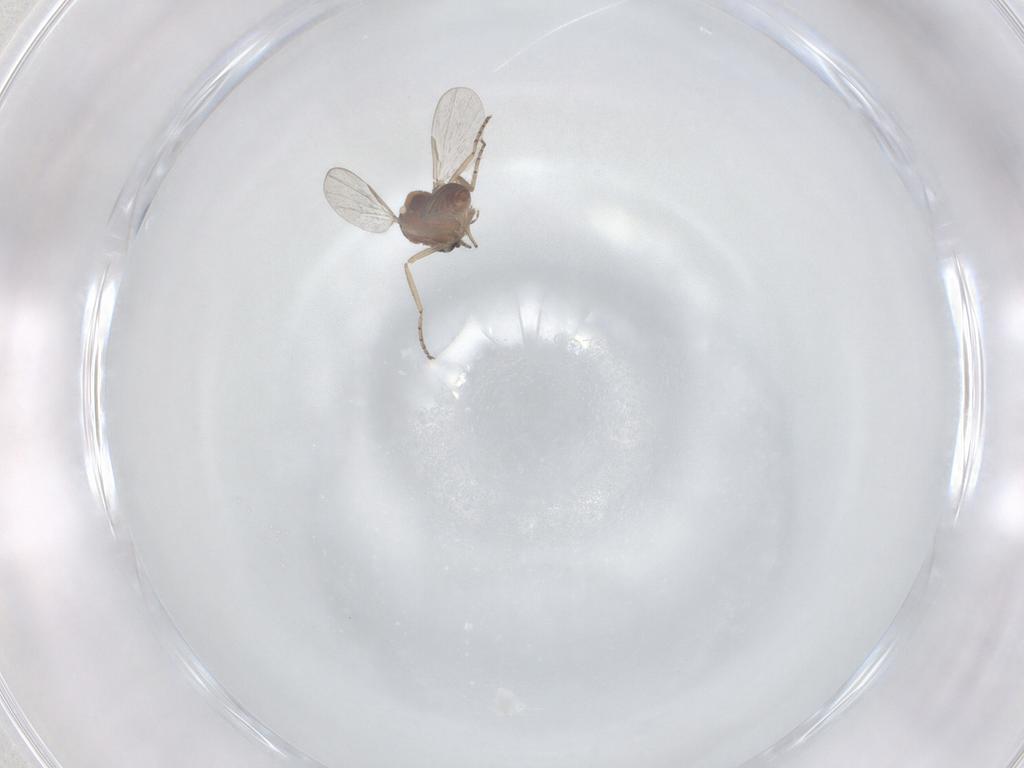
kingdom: Animalia
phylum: Arthropoda
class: Insecta
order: Diptera
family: Ceratopogonidae
